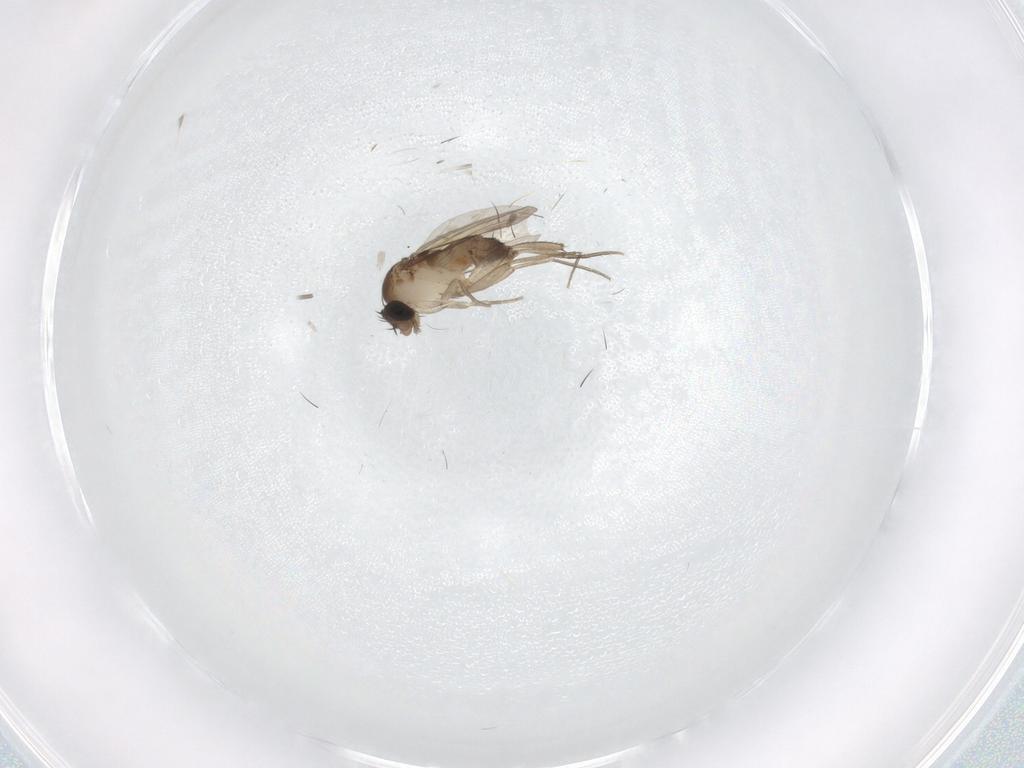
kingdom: Animalia
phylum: Arthropoda
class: Insecta
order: Diptera
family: Phoridae
